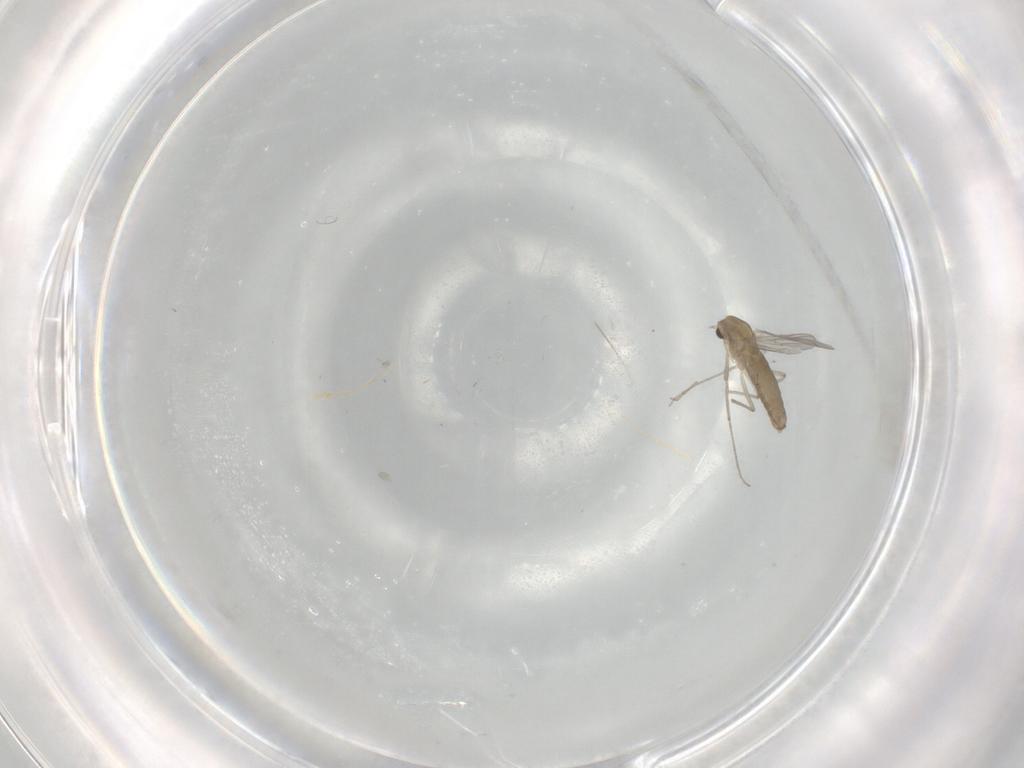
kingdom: Animalia
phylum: Arthropoda
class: Insecta
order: Diptera
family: Chironomidae
